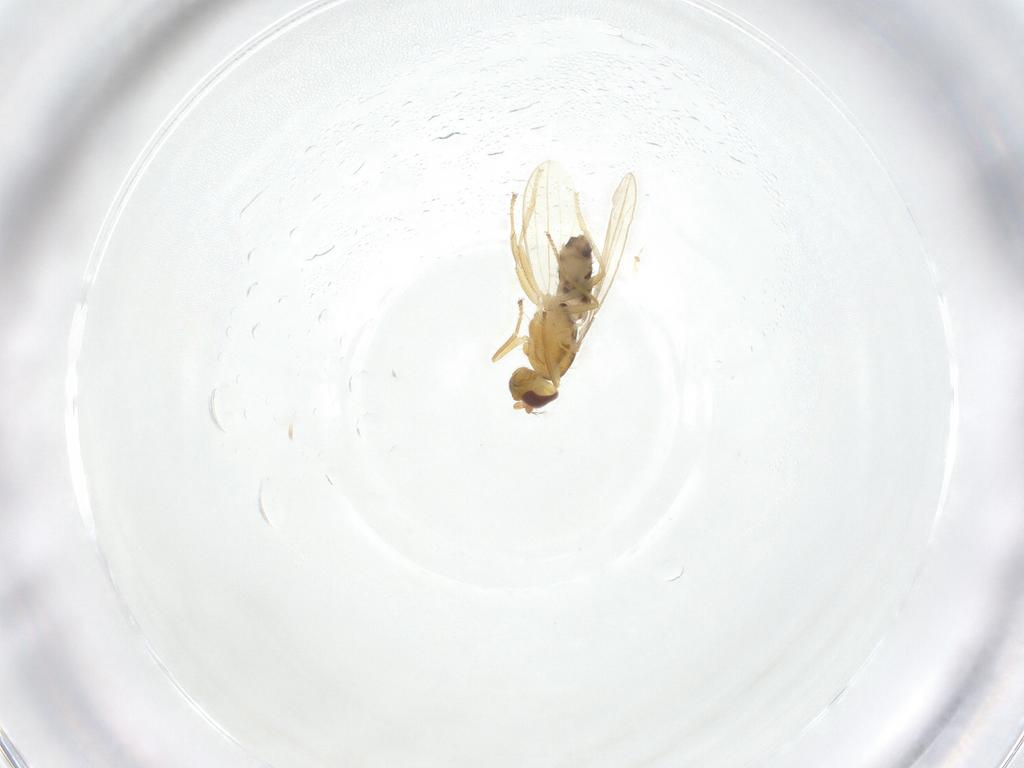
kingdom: Animalia
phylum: Arthropoda
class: Insecta
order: Diptera
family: Periscelididae
